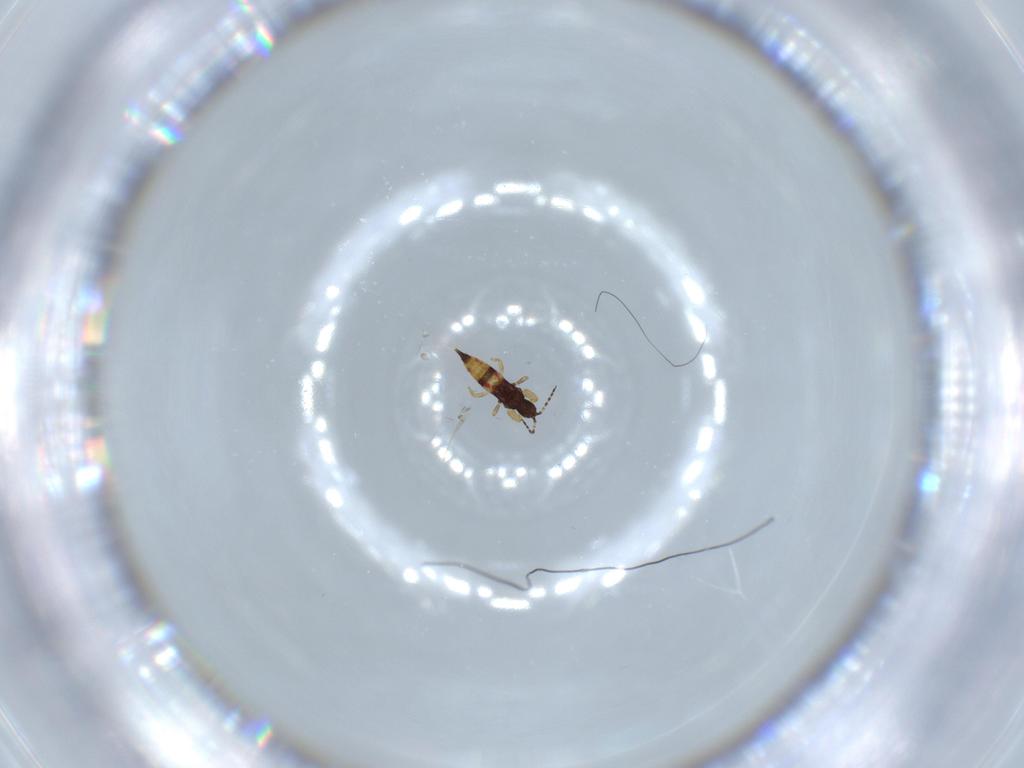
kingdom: Animalia
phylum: Arthropoda
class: Insecta
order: Thysanoptera
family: Phlaeothripidae
